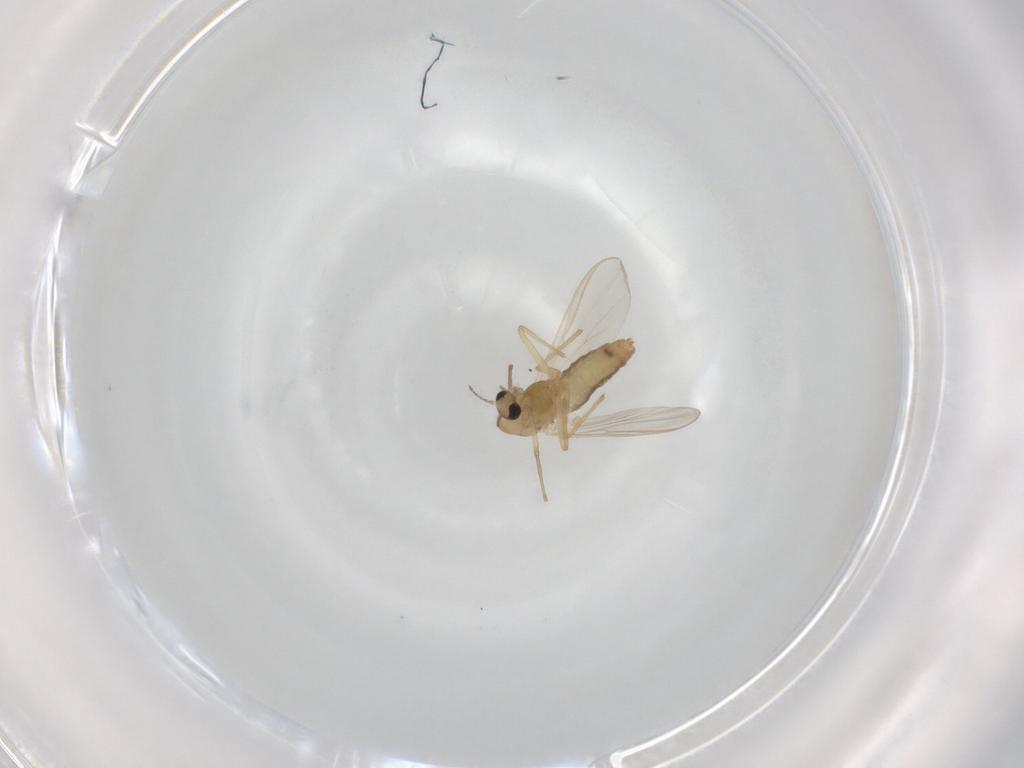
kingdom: Animalia
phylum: Arthropoda
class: Insecta
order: Diptera
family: Chironomidae
